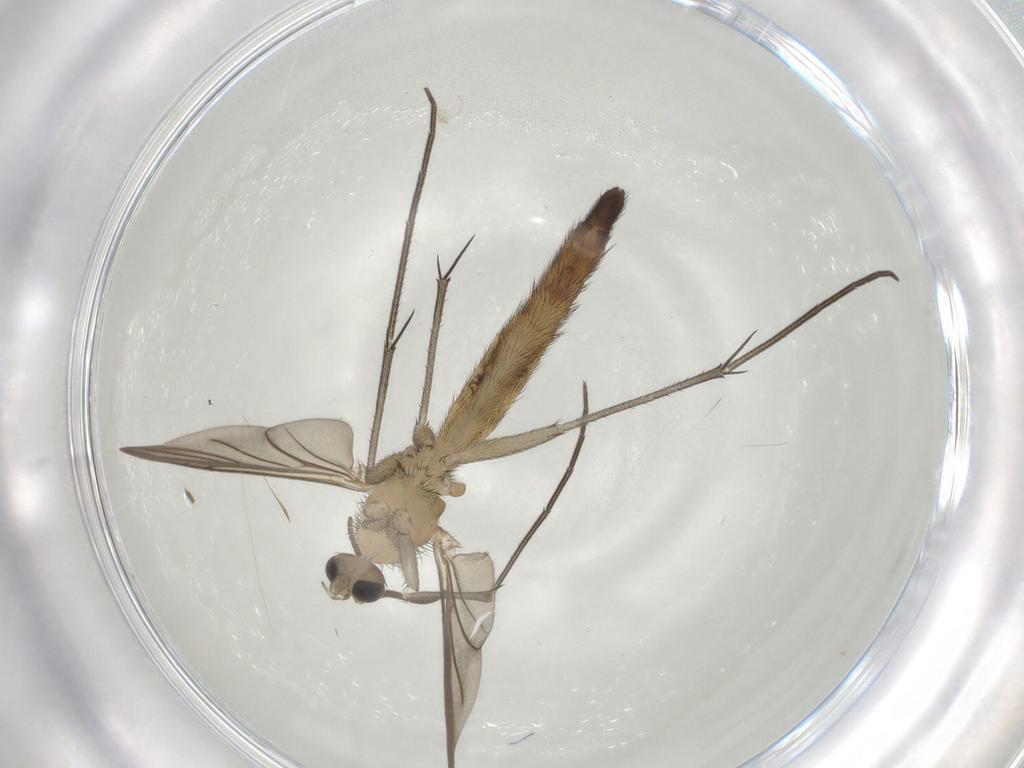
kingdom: Animalia
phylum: Arthropoda
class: Insecta
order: Diptera
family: Keroplatidae
